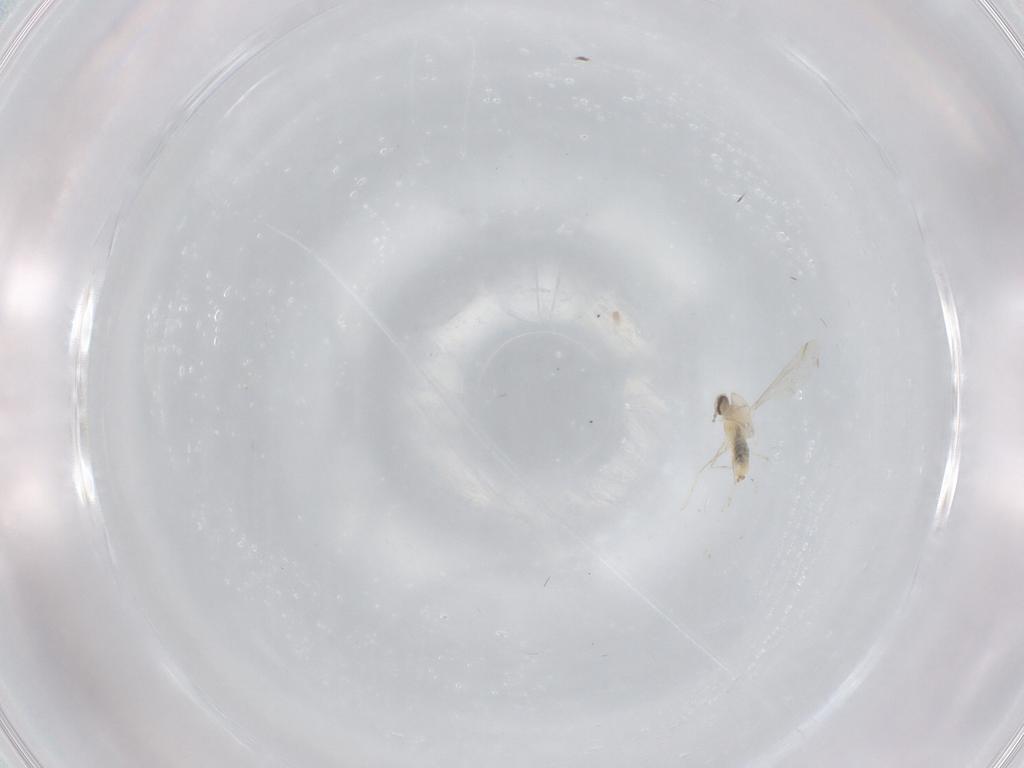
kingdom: Animalia
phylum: Arthropoda
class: Insecta
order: Diptera
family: Cecidomyiidae
